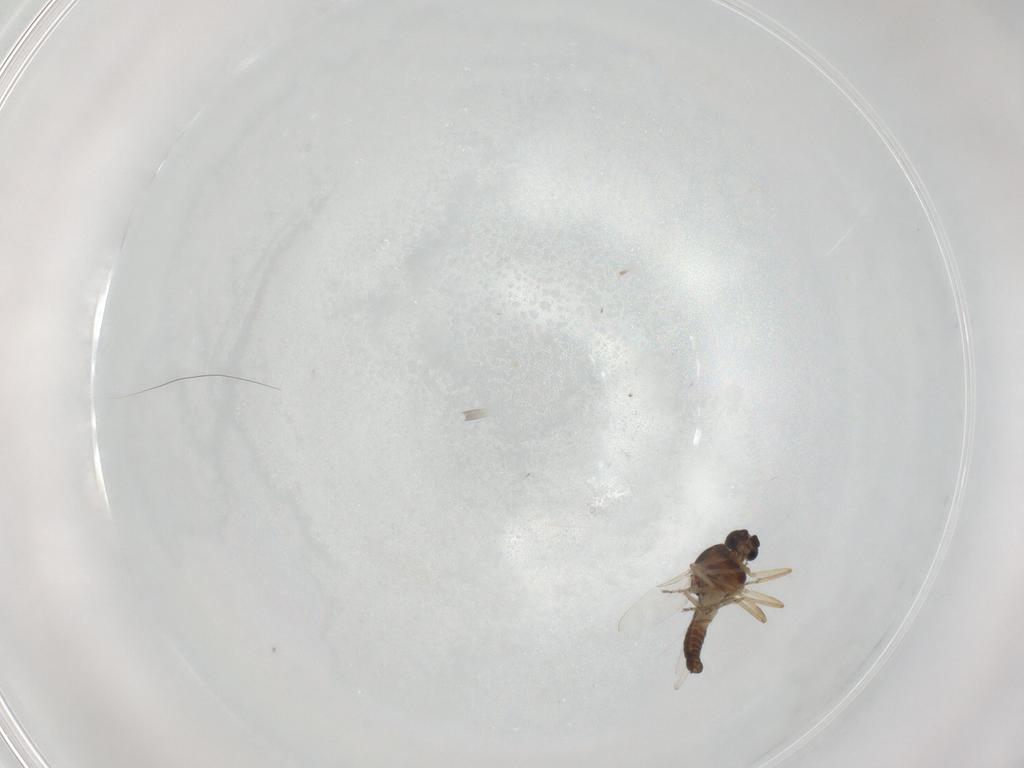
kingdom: Animalia
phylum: Arthropoda
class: Insecta
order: Diptera
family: Ceratopogonidae
